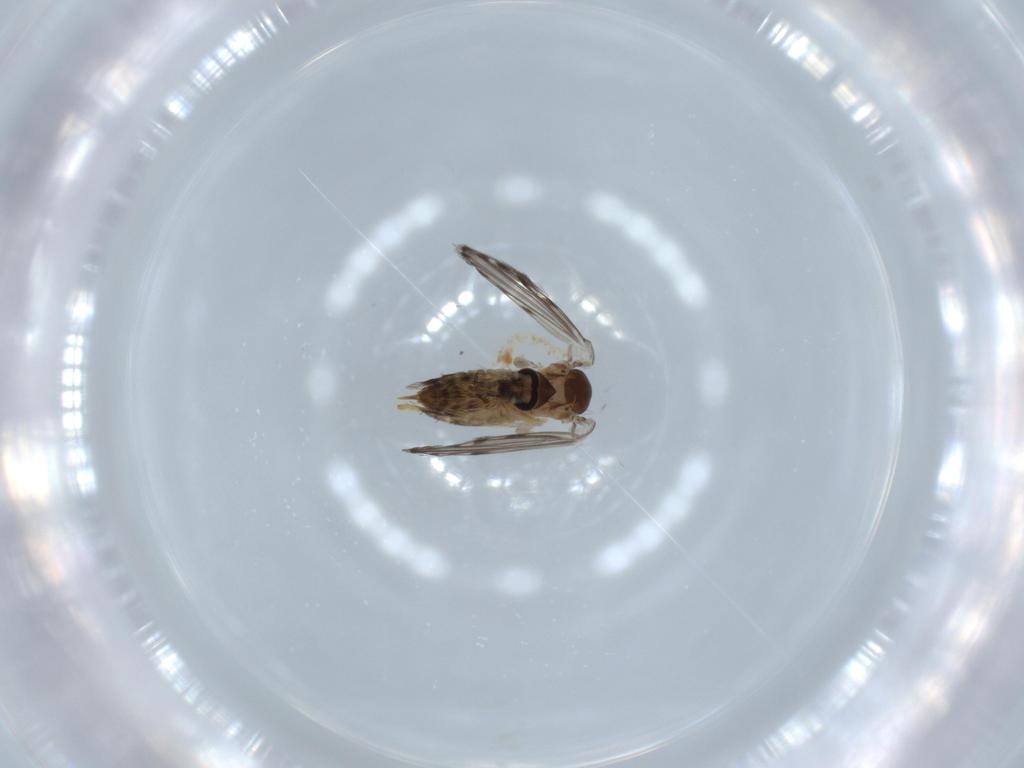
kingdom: Animalia
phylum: Arthropoda
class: Insecta
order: Diptera
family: Psychodidae
